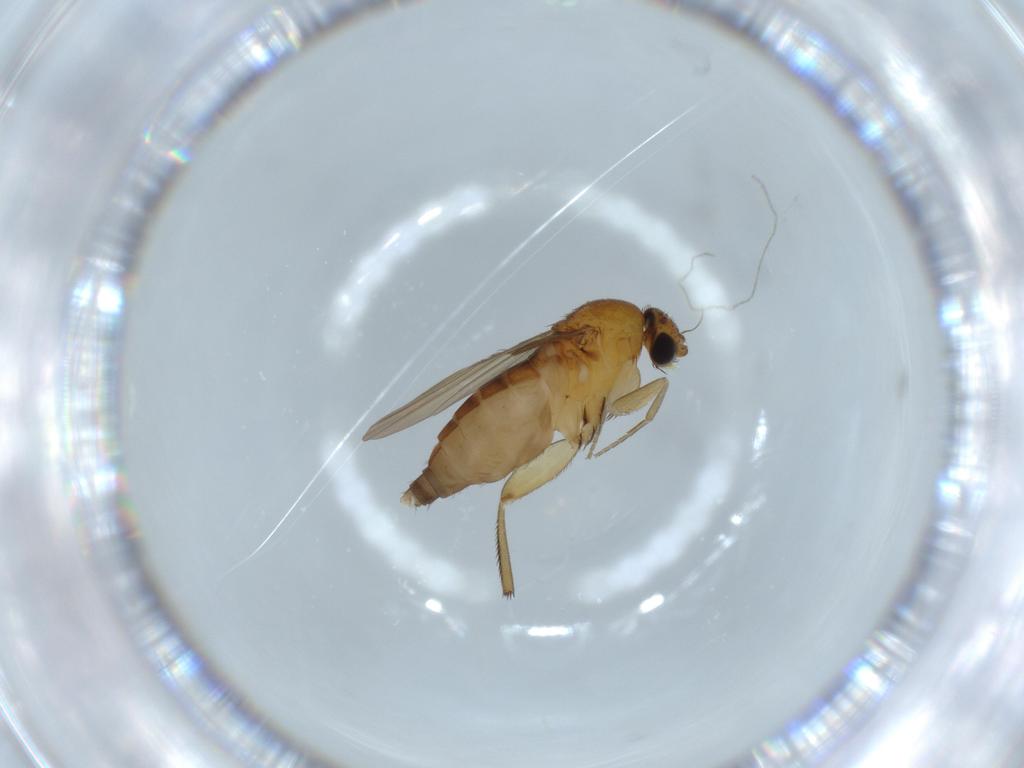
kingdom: Animalia
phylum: Arthropoda
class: Insecta
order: Diptera
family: Phoridae
